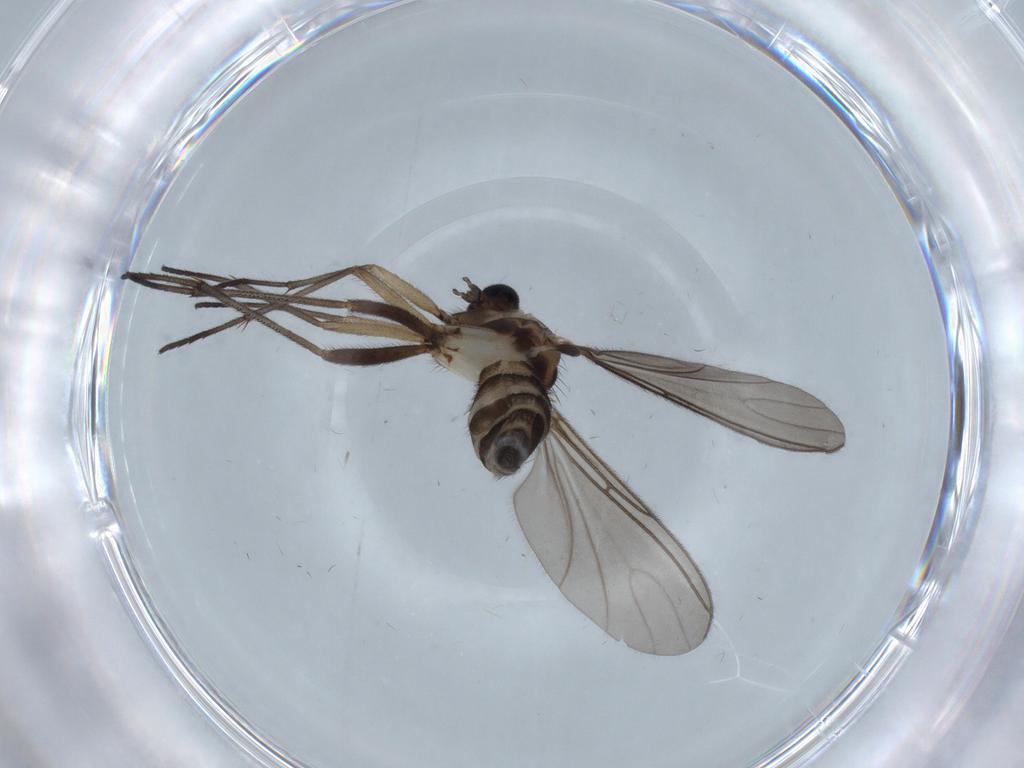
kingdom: Animalia
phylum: Arthropoda
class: Insecta
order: Diptera
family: Sciaridae
